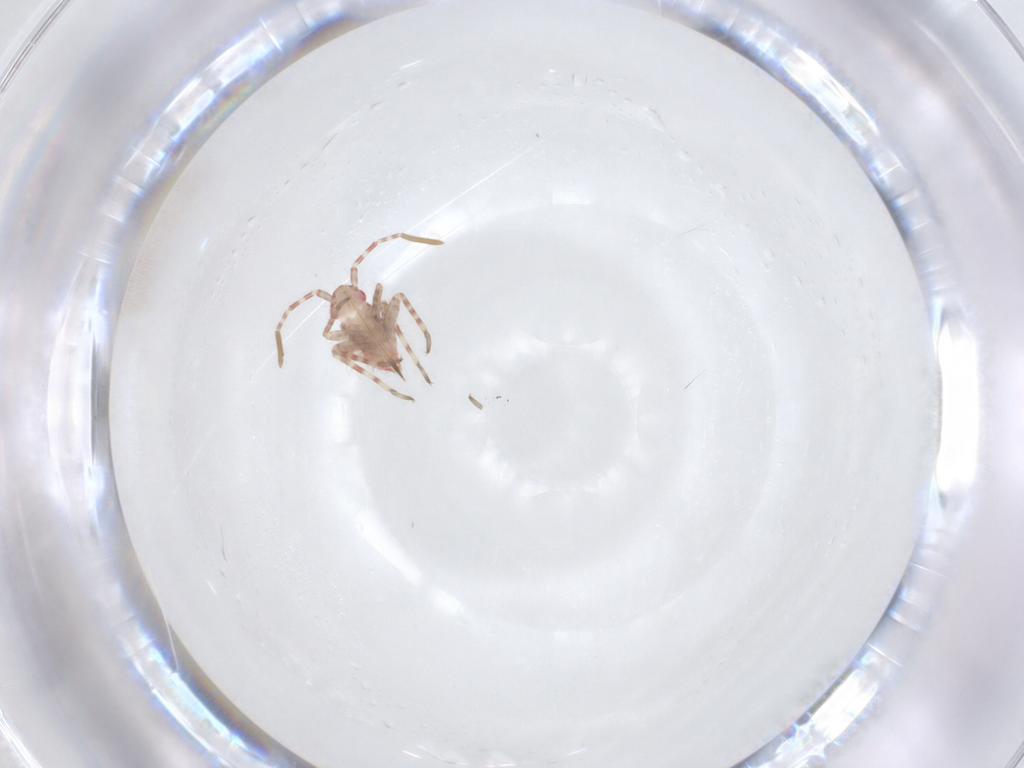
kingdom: Animalia
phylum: Arthropoda
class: Insecta
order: Hemiptera
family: Miridae
